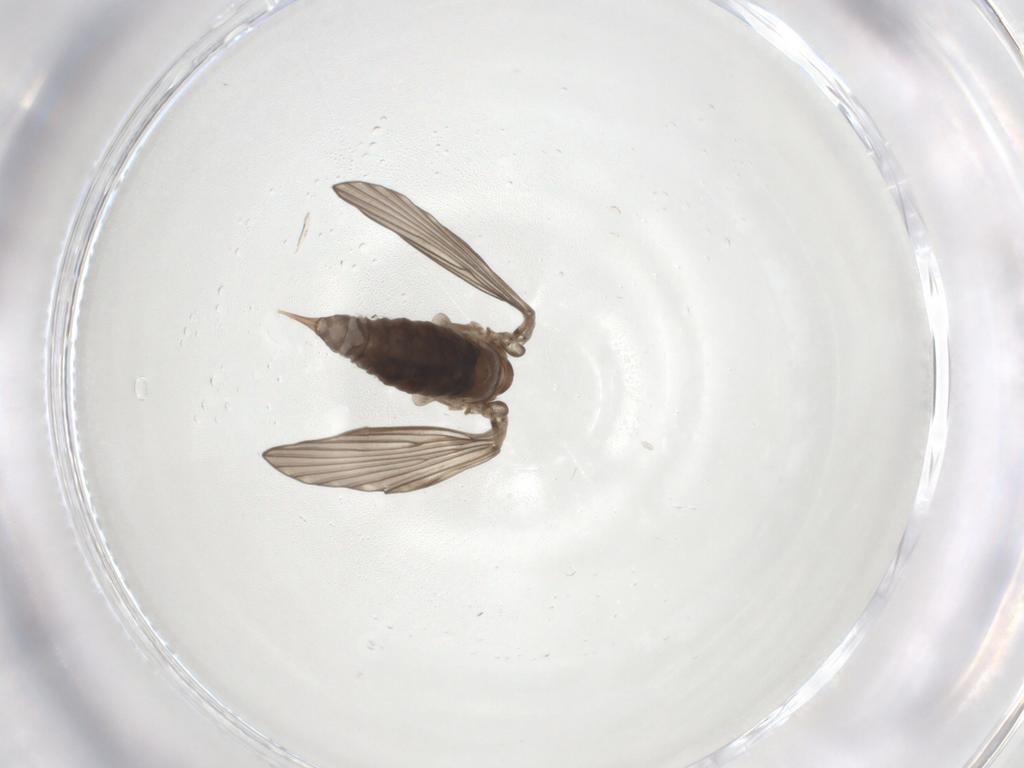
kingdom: Animalia
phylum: Arthropoda
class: Insecta
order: Diptera
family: Psychodidae
